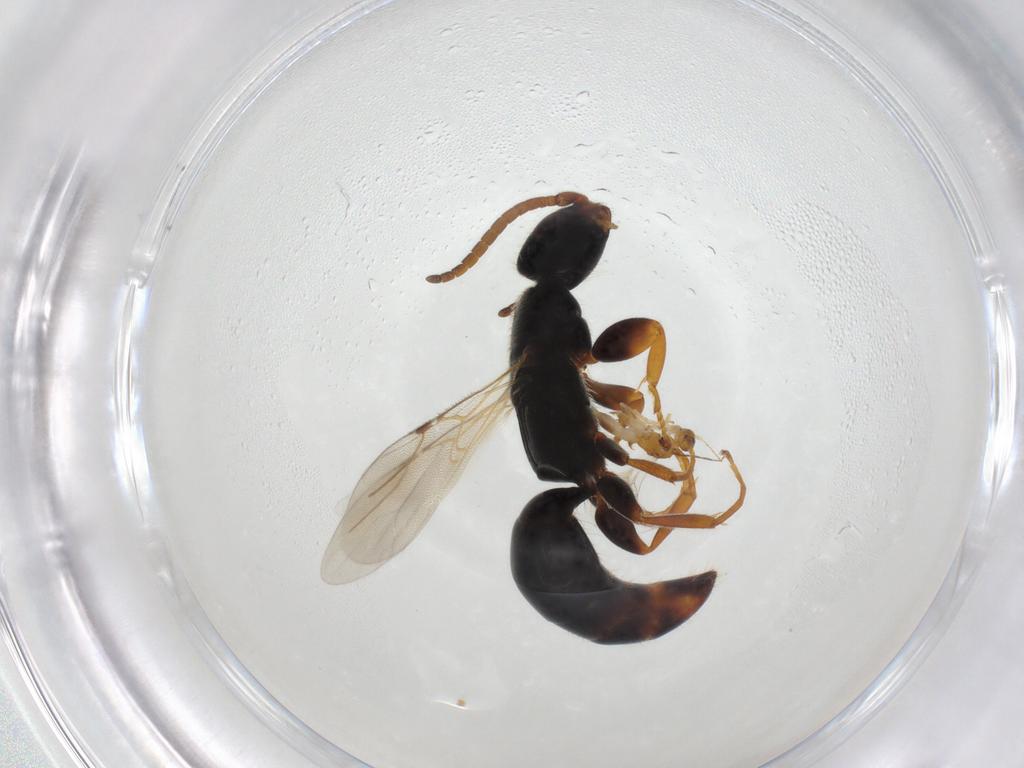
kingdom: Animalia
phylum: Arthropoda
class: Insecta
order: Hymenoptera
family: Bethylidae
